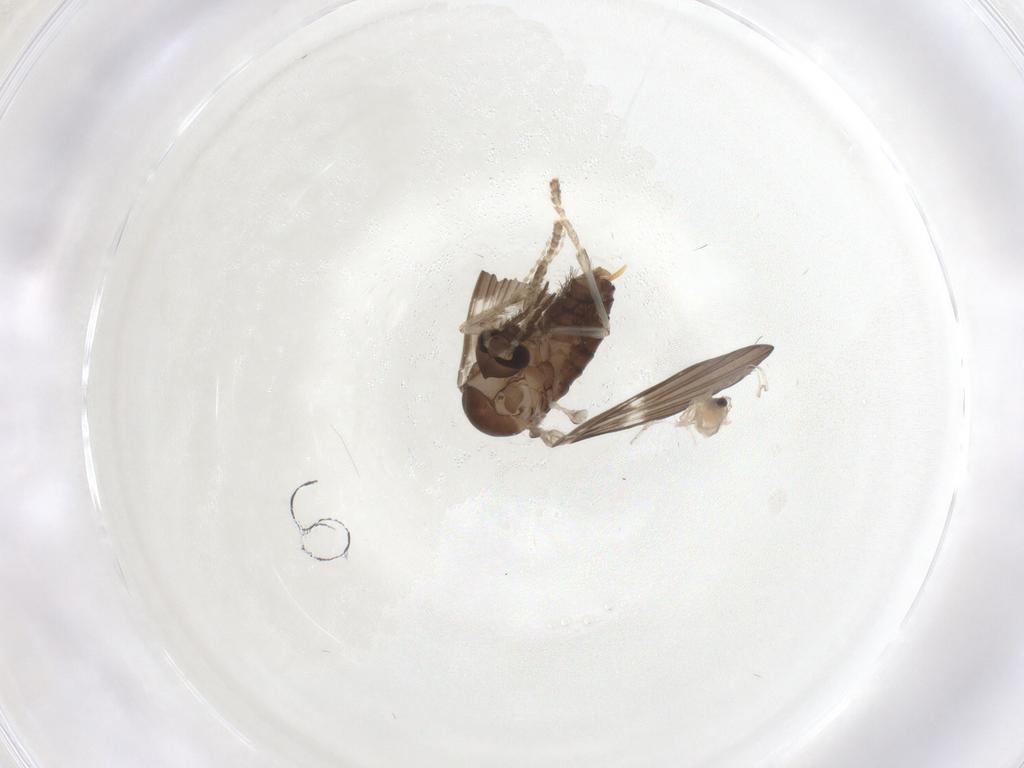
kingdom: Animalia
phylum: Arthropoda
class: Insecta
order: Diptera
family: Psychodidae
